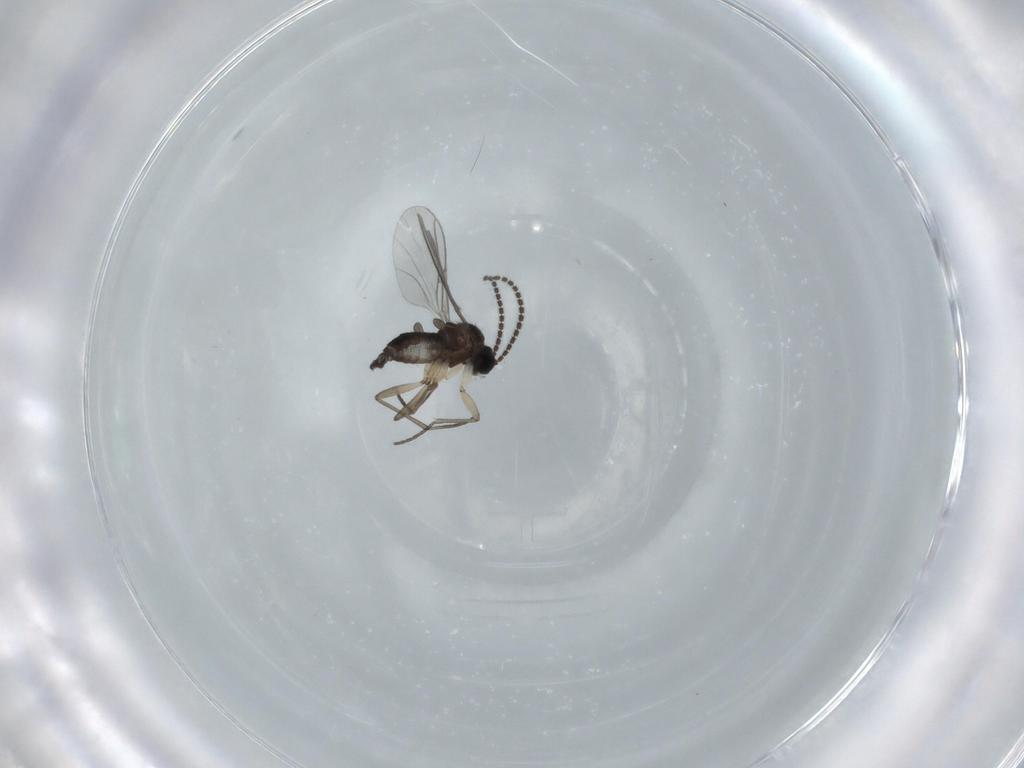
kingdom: Animalia
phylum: Arthropoda
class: Insecta
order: Diptera
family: Sciaridae
